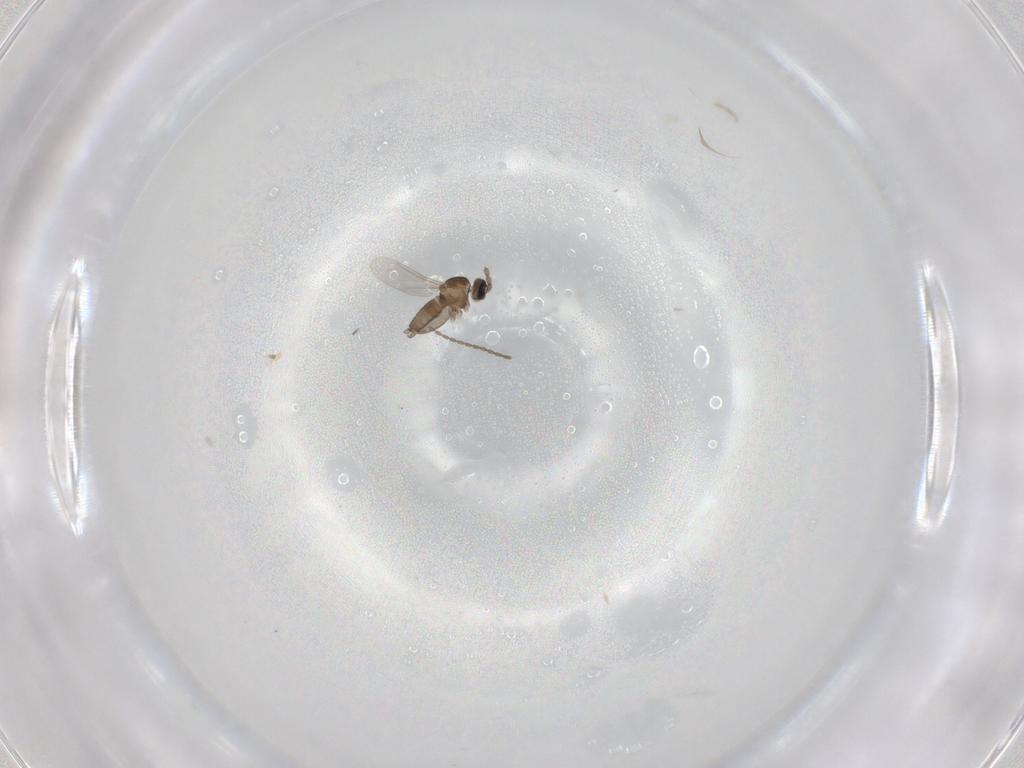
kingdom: Animalia
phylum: Arthropoda
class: Insecta
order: Diptera
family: Cecidomyiidae
